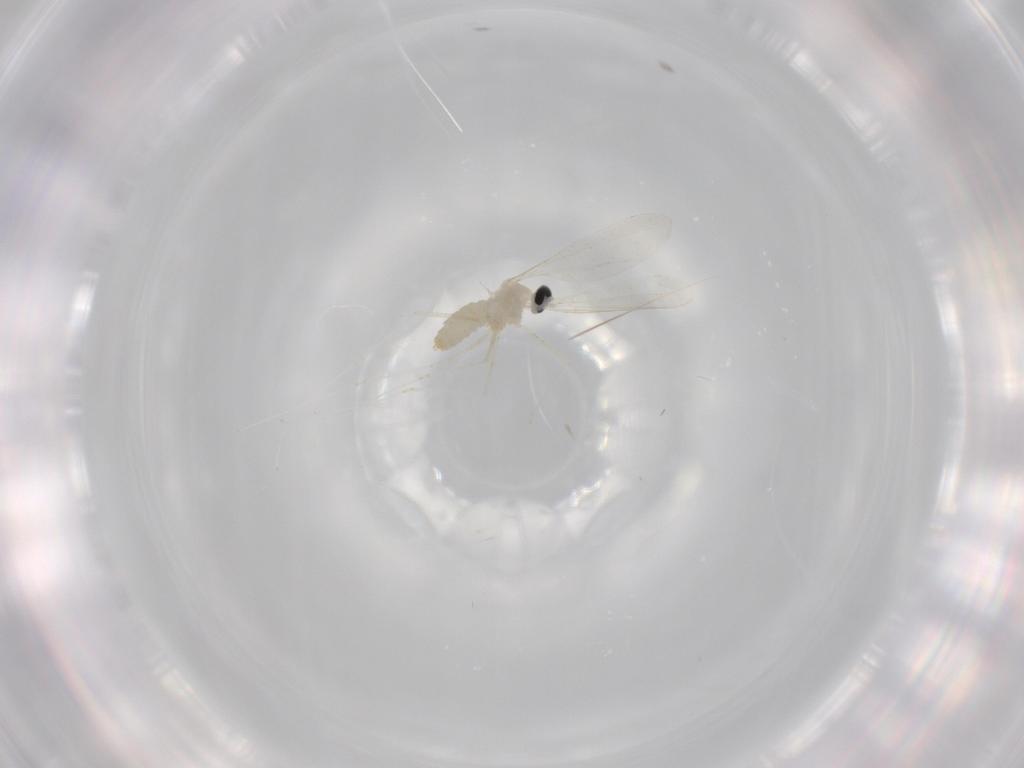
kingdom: Animalia
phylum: Arthropoda
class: Insecta
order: Diptera
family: Cecidomyiidae
